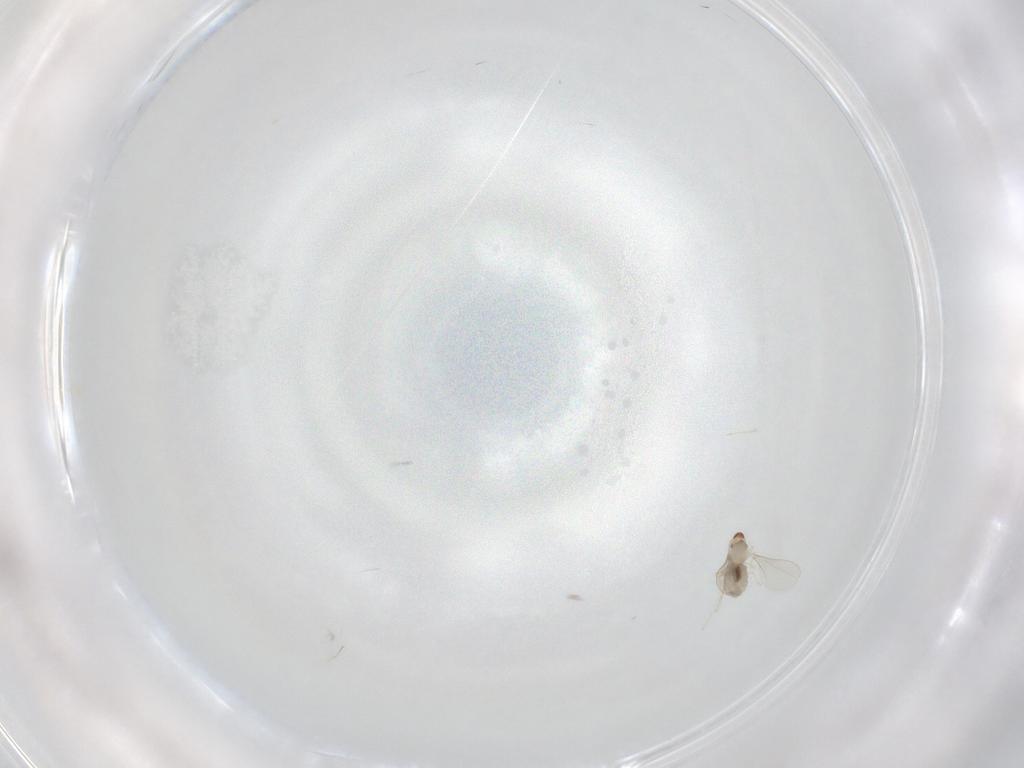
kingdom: Animalia
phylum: Arthropoda
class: Insecta
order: Diptera
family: Cecidomyiidae
